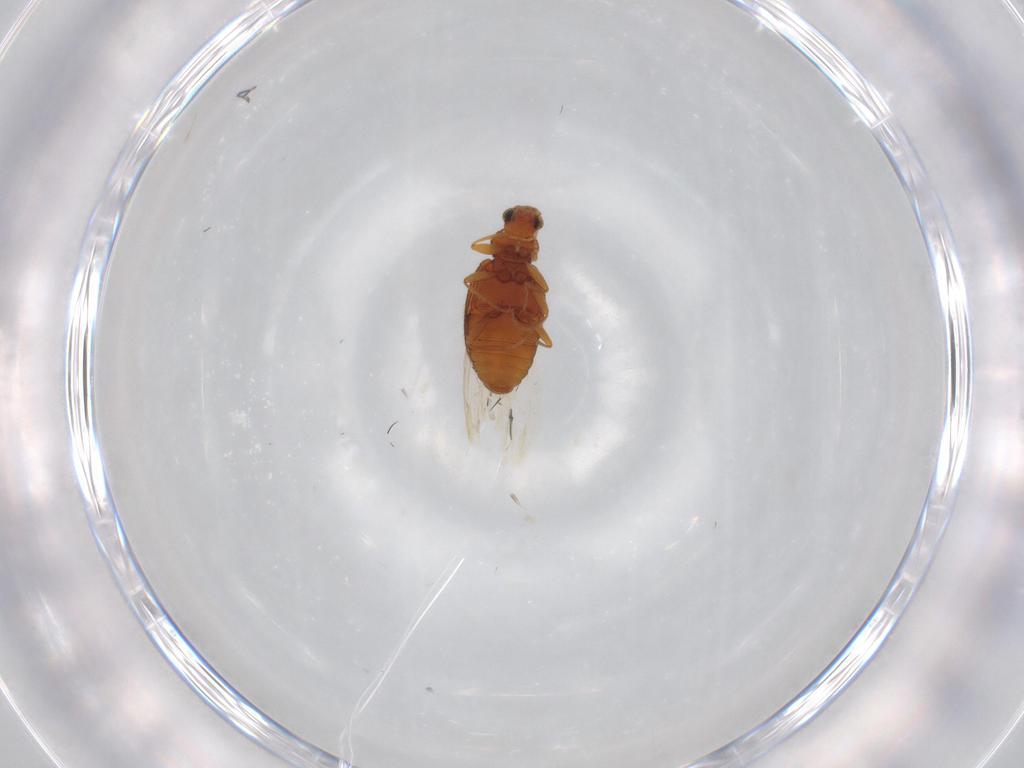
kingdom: Animalia
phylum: Arthropoda
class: Insecta
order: Coleoptera
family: Latridiidae
